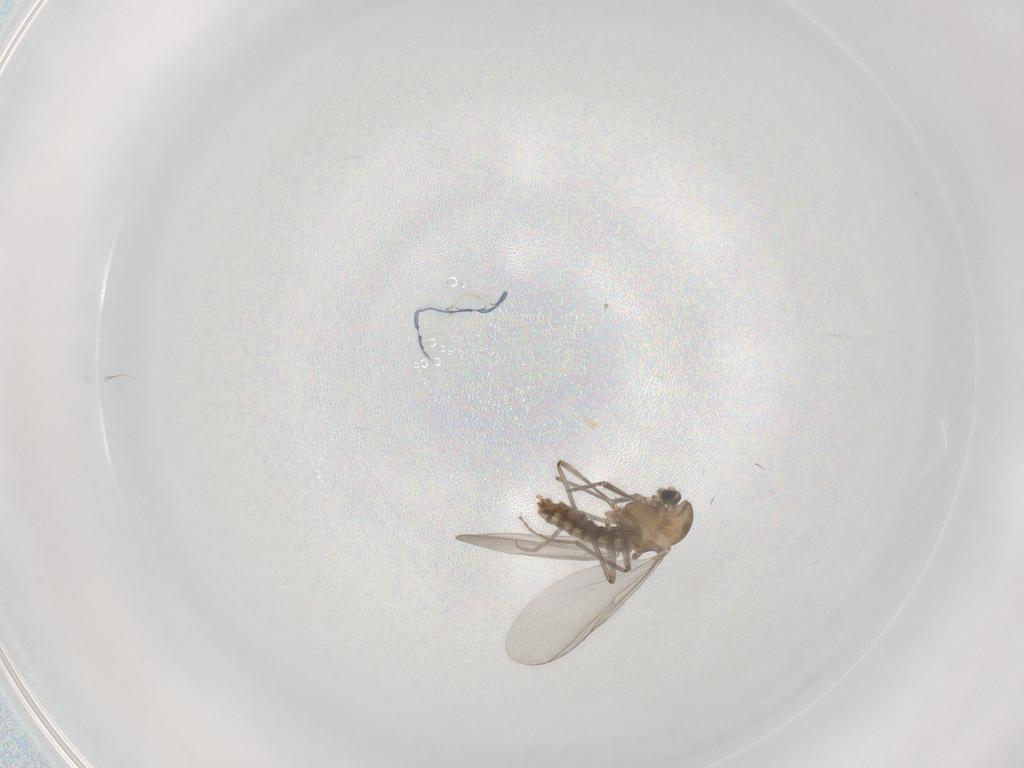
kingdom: Animalia
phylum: Arthropoda
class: Insecta
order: Diptera
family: Chironomidae
